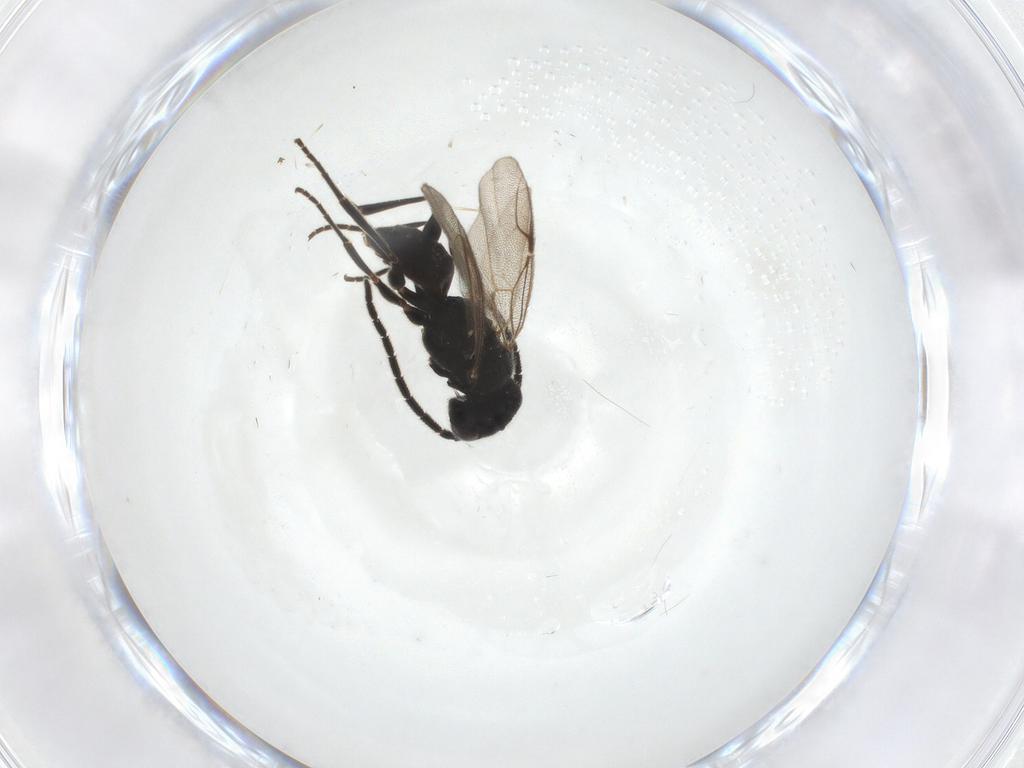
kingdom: Animalia
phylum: Arthropoda
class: Insecta
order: Hymenoptera
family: Dryinidae
